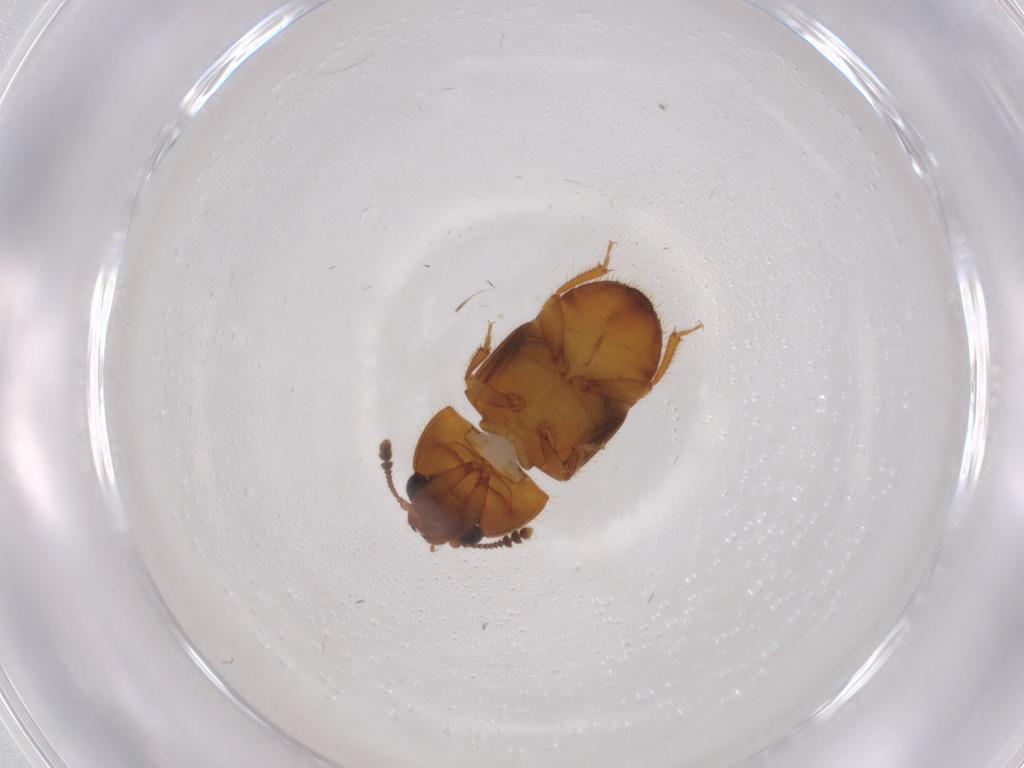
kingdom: Animalia
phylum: Arthropoda
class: Insecta
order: Coleoptera
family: Nitidulidae
